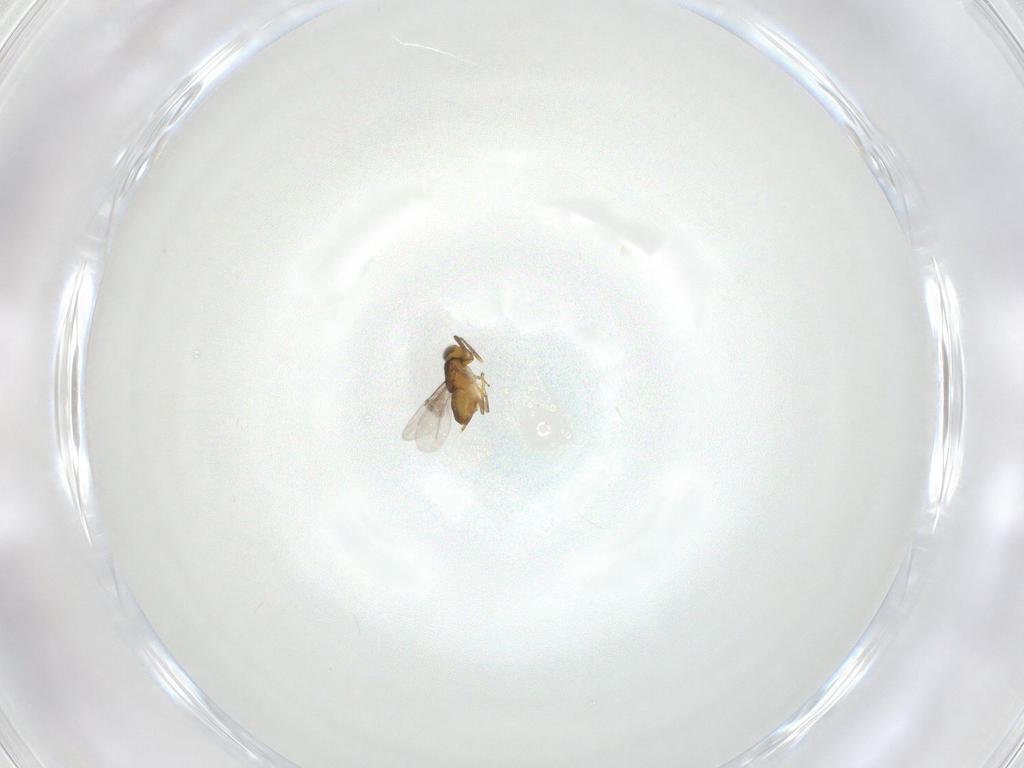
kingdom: Animalia
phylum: Arthropoda
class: Insecta
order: Hymenoptera
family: Encyrtidae
